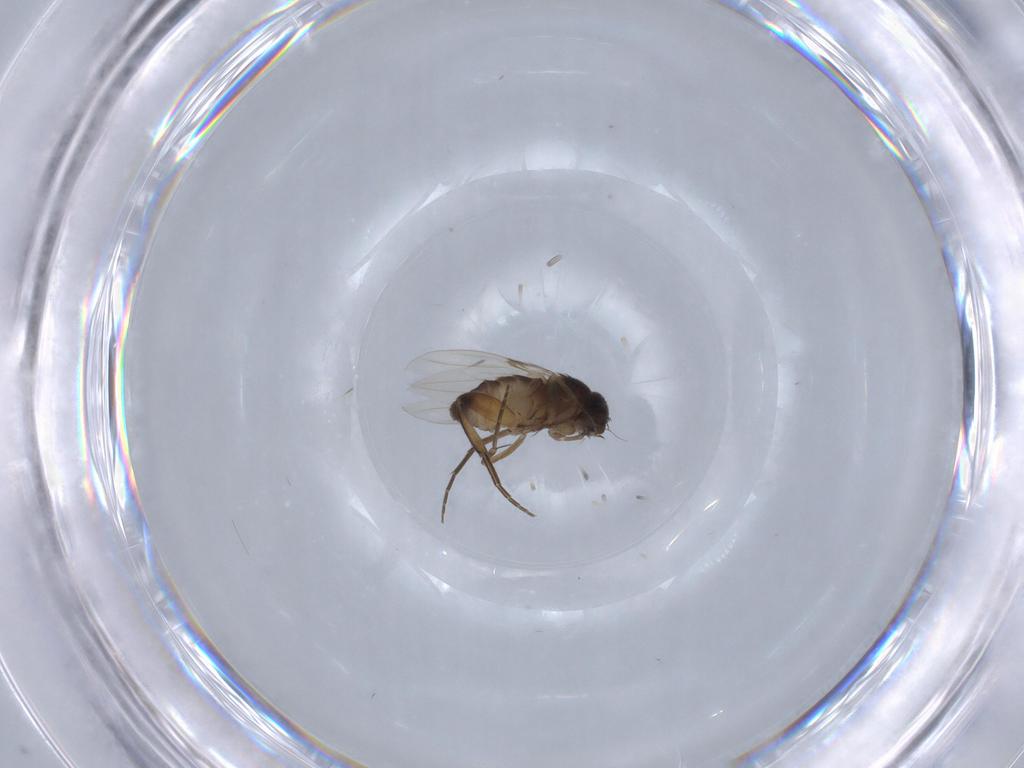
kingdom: Animalia
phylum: Arthropoda
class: Insecta
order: Diptera
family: Phoridae
